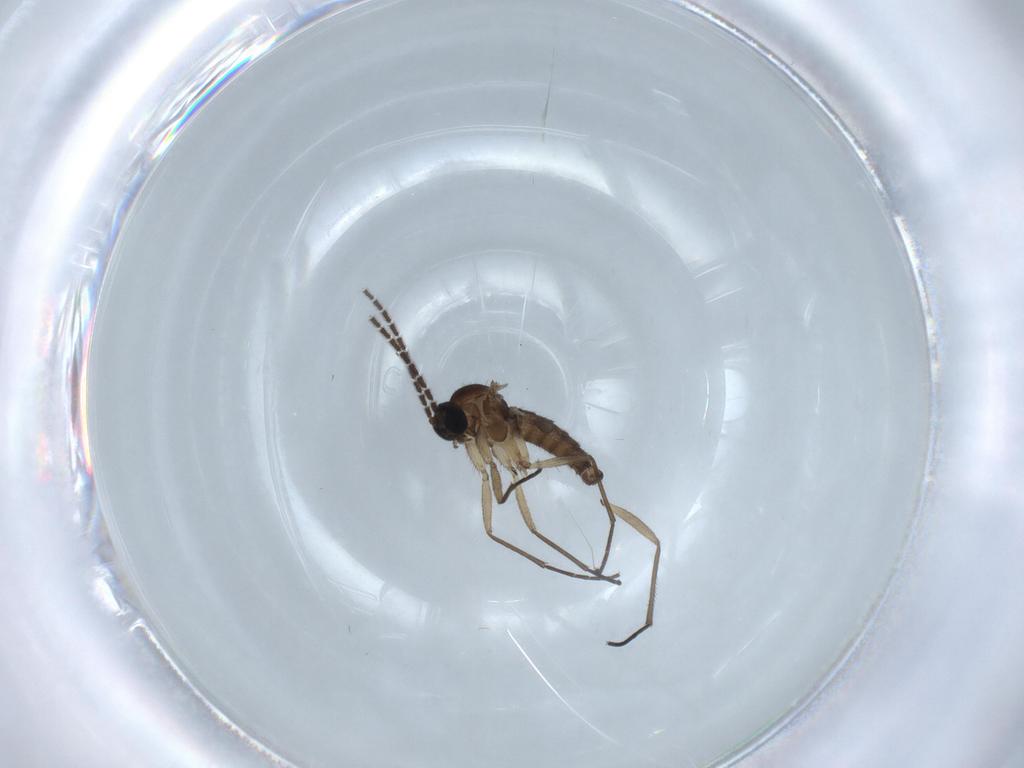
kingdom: Animalia
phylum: Arthropoda
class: Insecta
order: Diptera
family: Sciaridae
